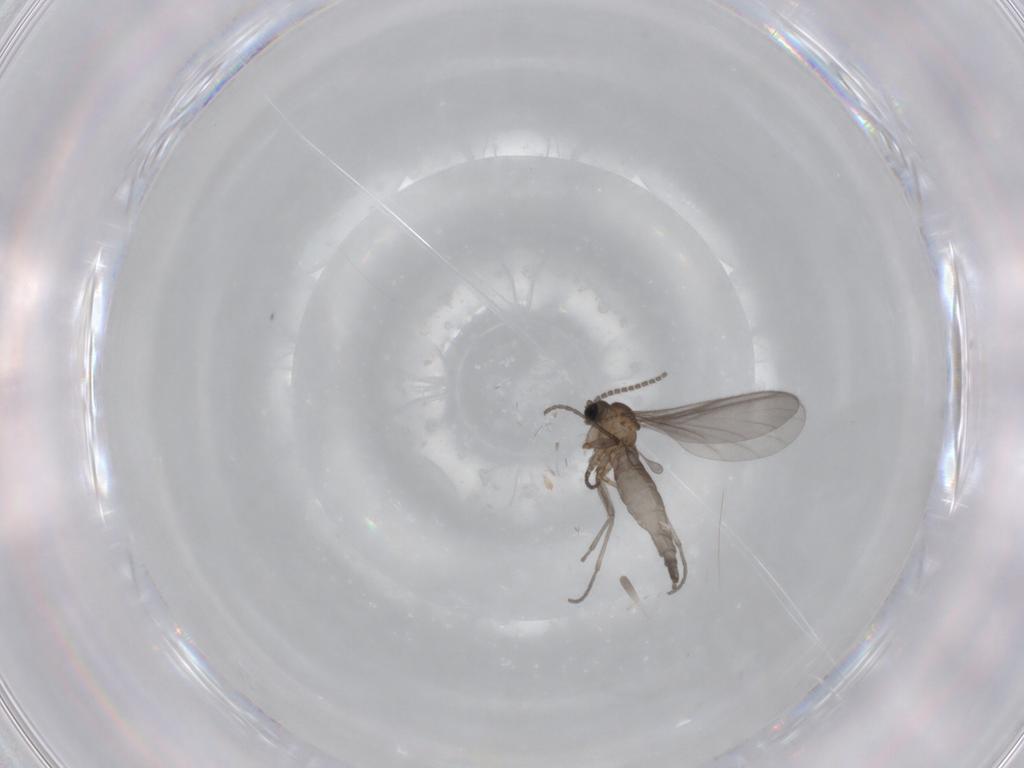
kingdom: Animalia
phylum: Arthropoda
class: Insecta
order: Diptera
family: Sciaridae
